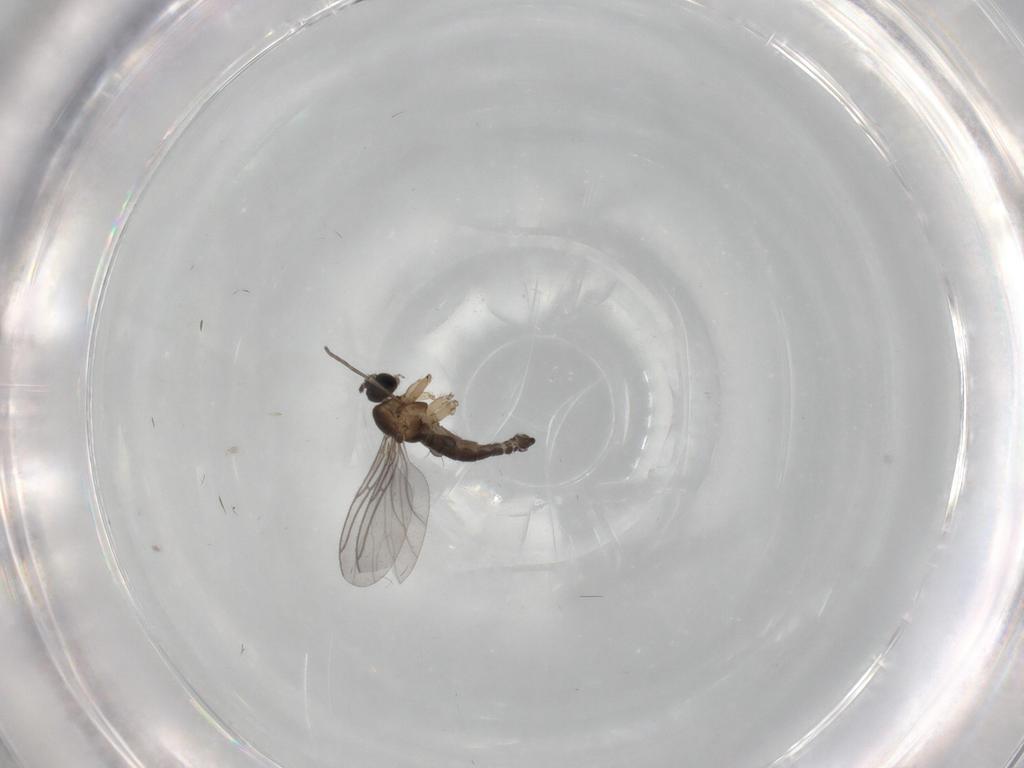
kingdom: Animalia
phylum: Arthropoda
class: Insecta
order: Diptera
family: Sciaridae
